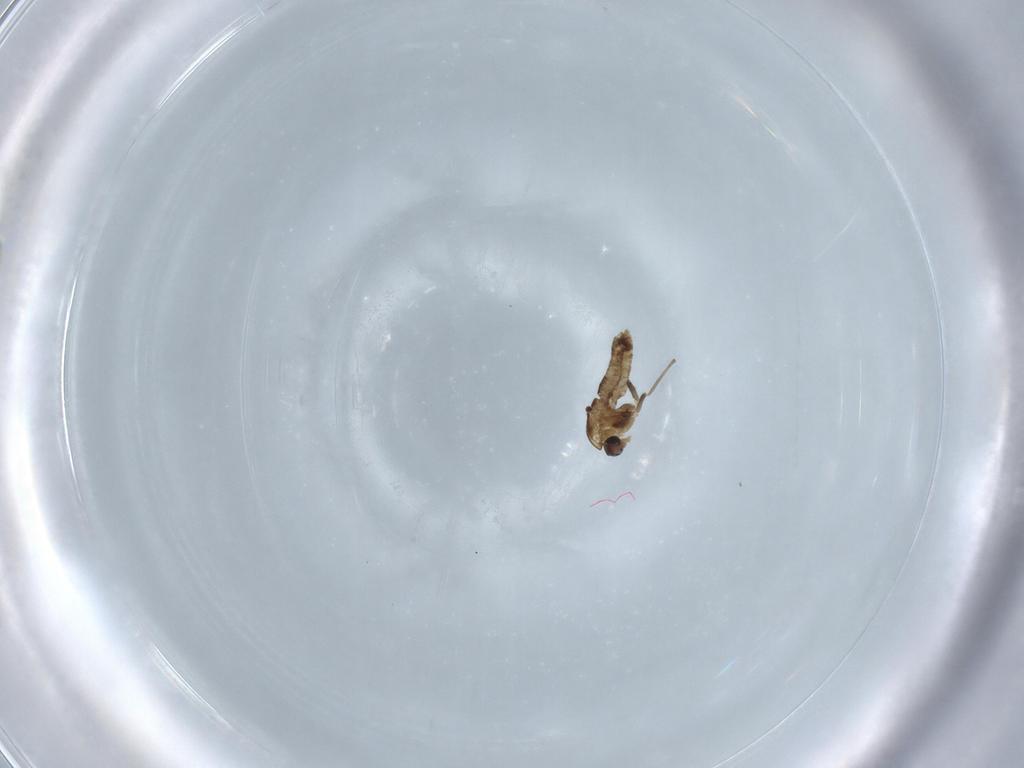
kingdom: Animalia
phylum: Arthropoda
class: Insecta
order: Diptera
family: Chironomidae
